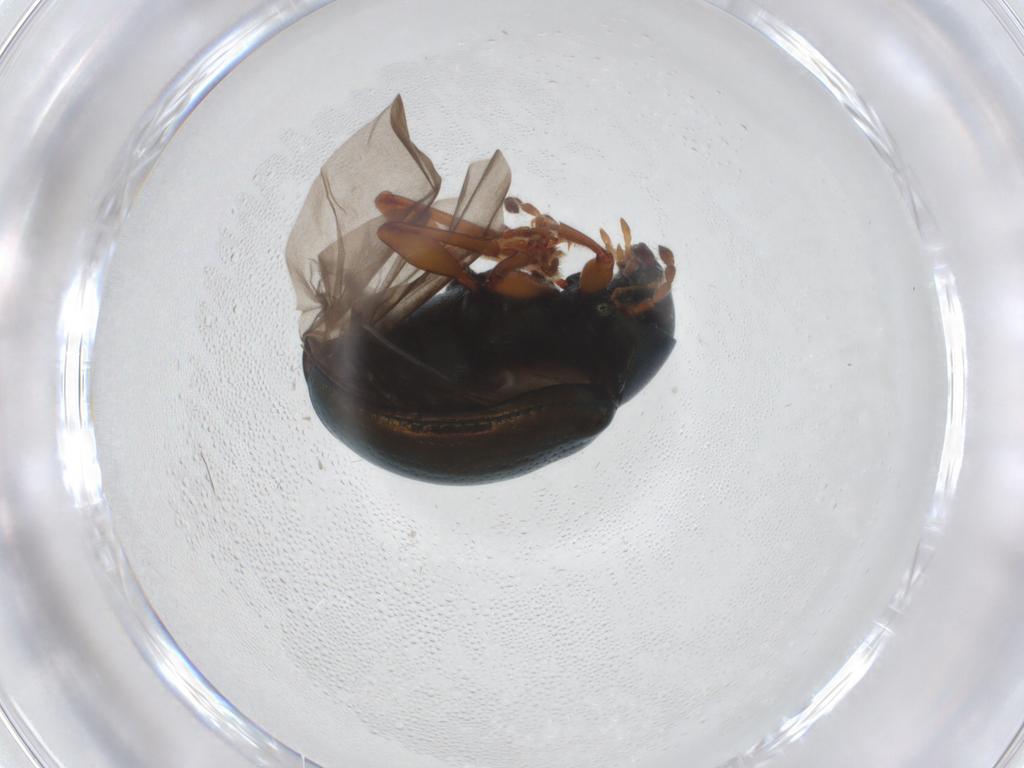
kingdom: Animalia
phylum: Arthropoda
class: Insecta
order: Coleoptera
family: Chrysomelidae
